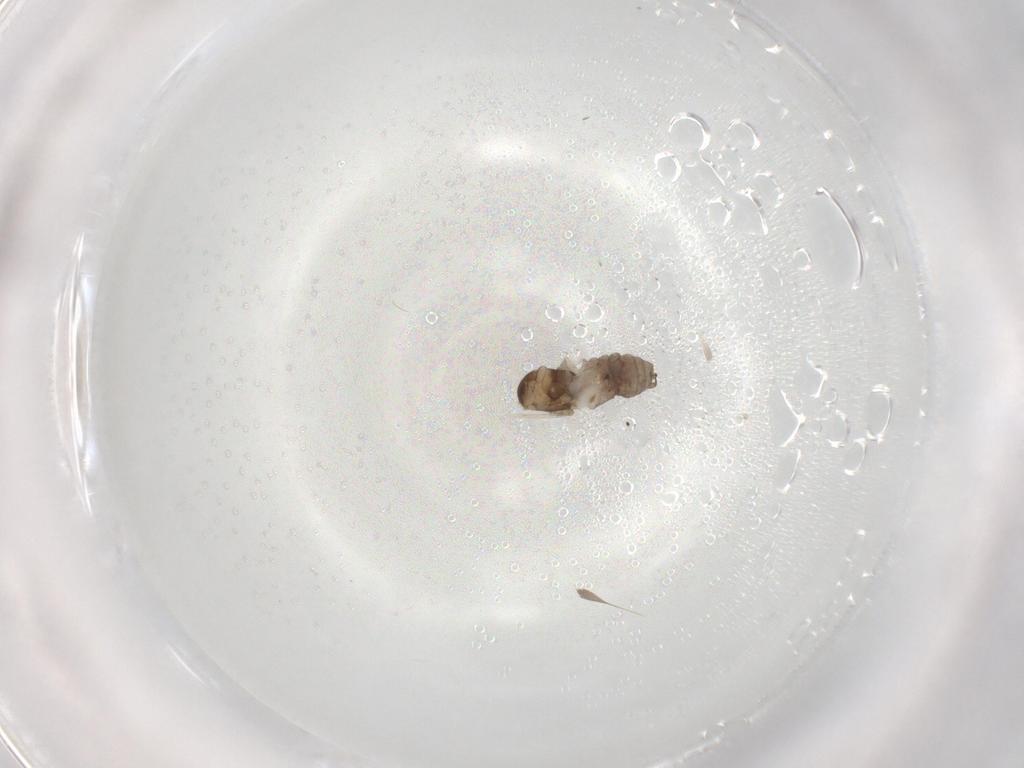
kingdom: Animalia
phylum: Arthropoda
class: Insecta
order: Diptera
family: Cecidomyiidae
